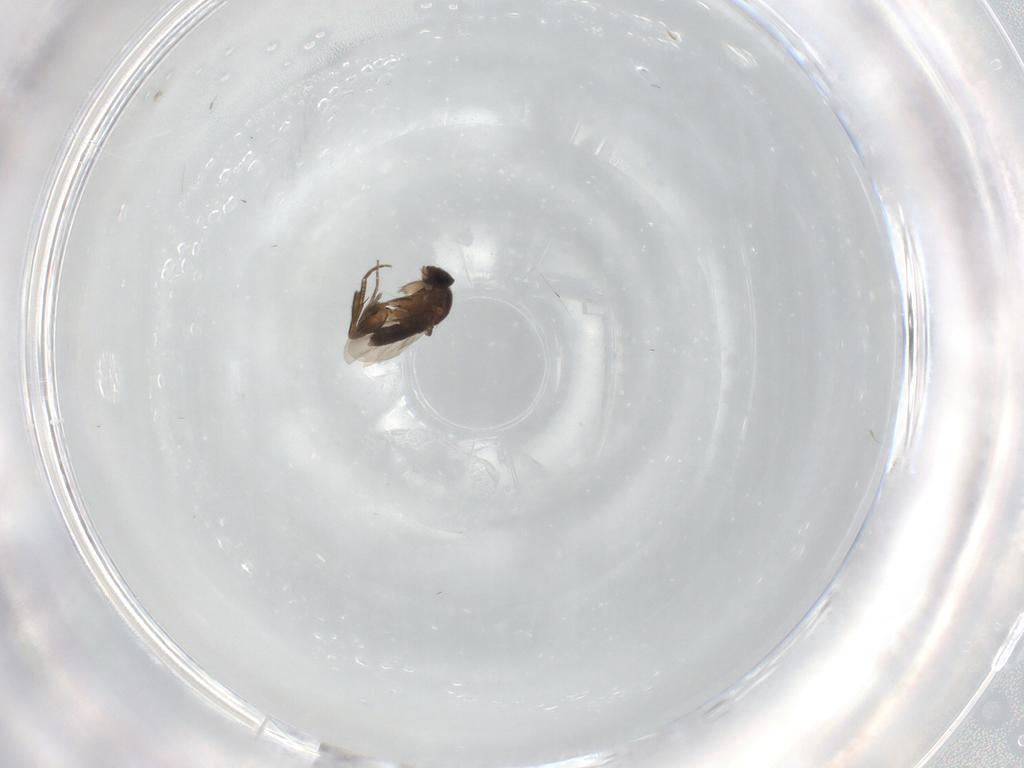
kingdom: Animalia
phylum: Arthropoda
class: Insecta
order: Diptera
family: Phoridae
